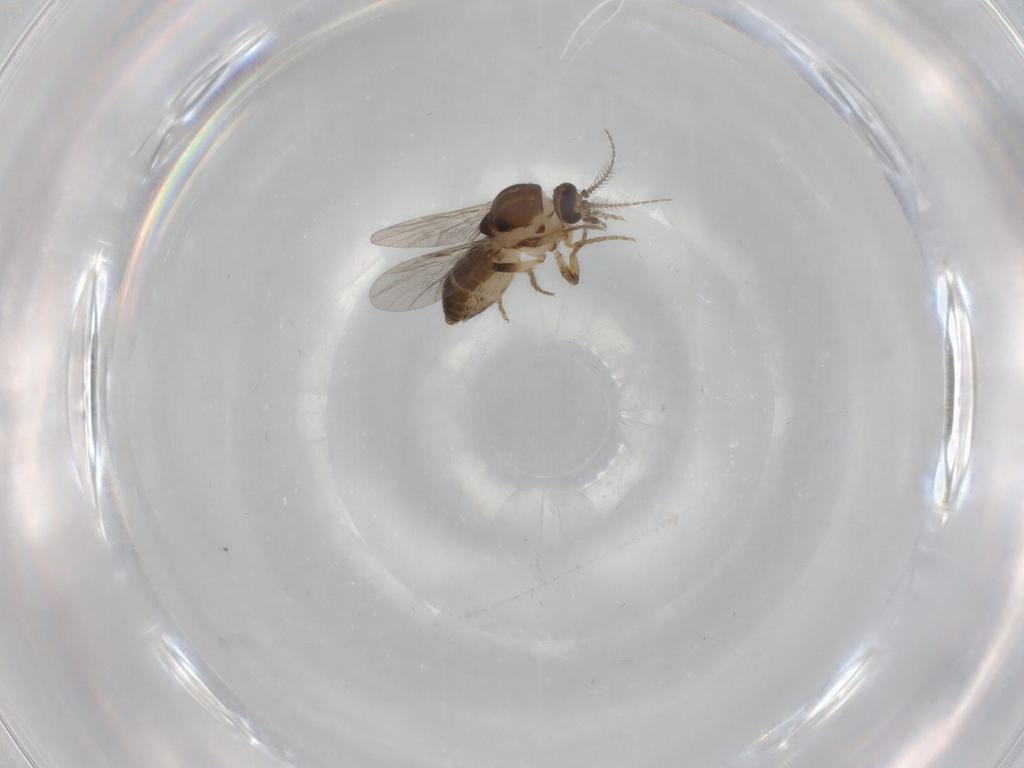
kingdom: Animalia
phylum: Arthropoda
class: Insecta
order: Diptera
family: Ceratopogonidae
